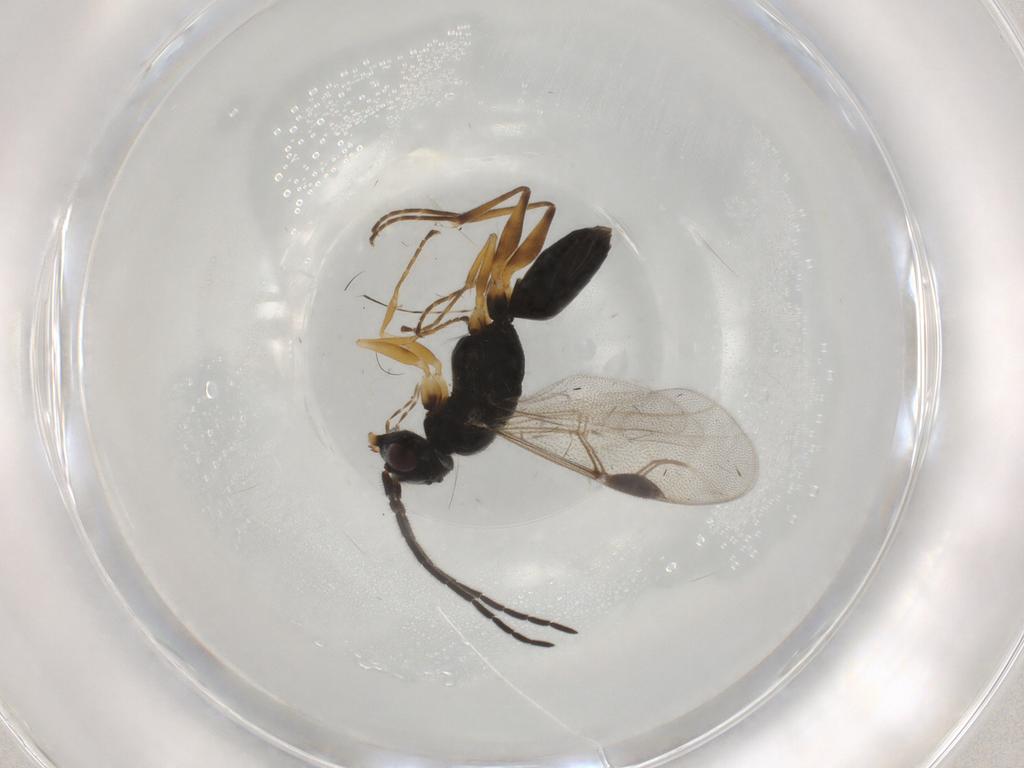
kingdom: Animalia
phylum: Arthropoda
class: Insecta
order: Hymenoptera
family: Dryinidae
